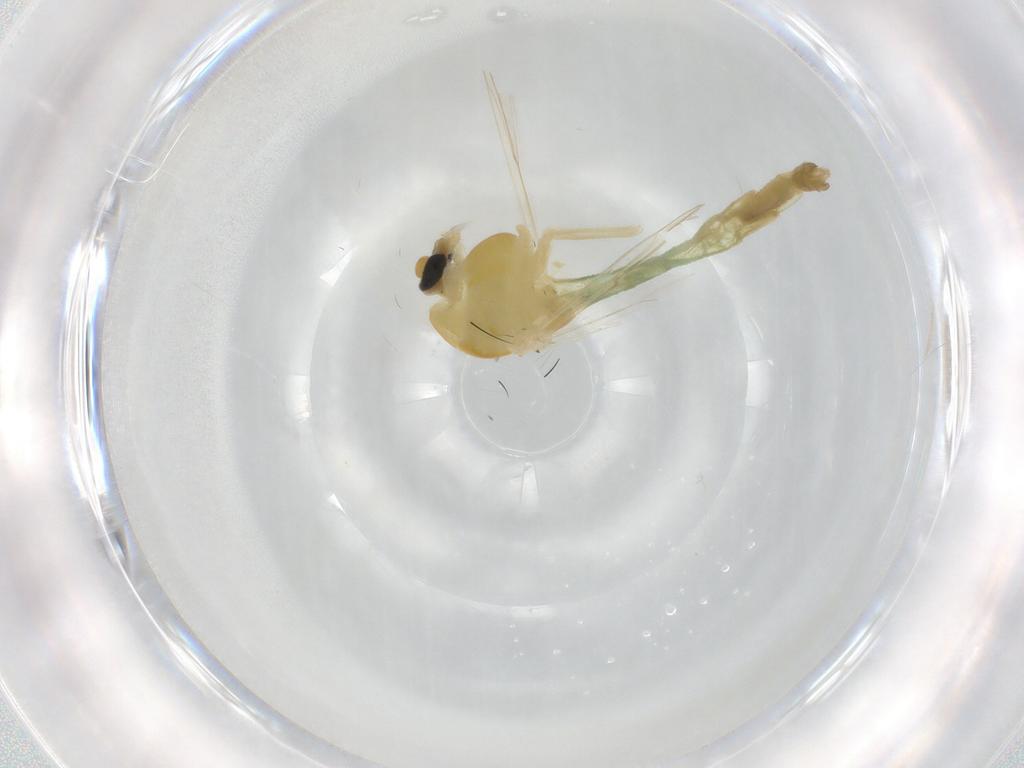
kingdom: Animalia
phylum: Arthropoda
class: Insecta
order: Diptera
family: Chironomidae
